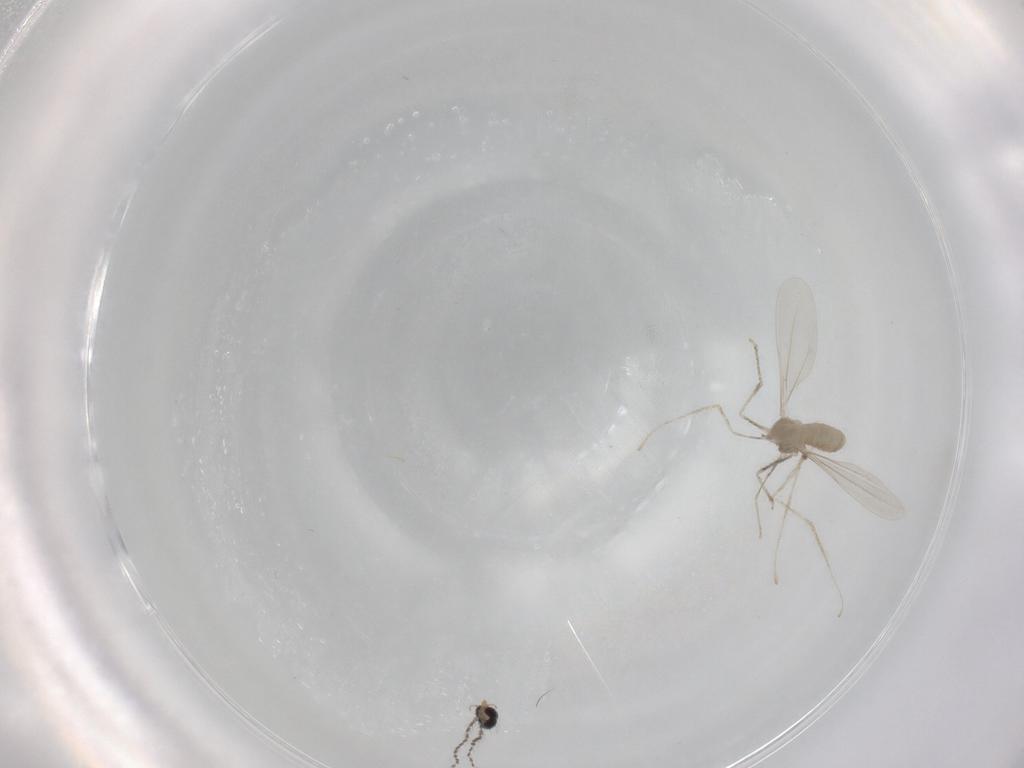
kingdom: Animalia
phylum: Arthropoda
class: Insecta
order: Diptera
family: Cecidomyiidae
